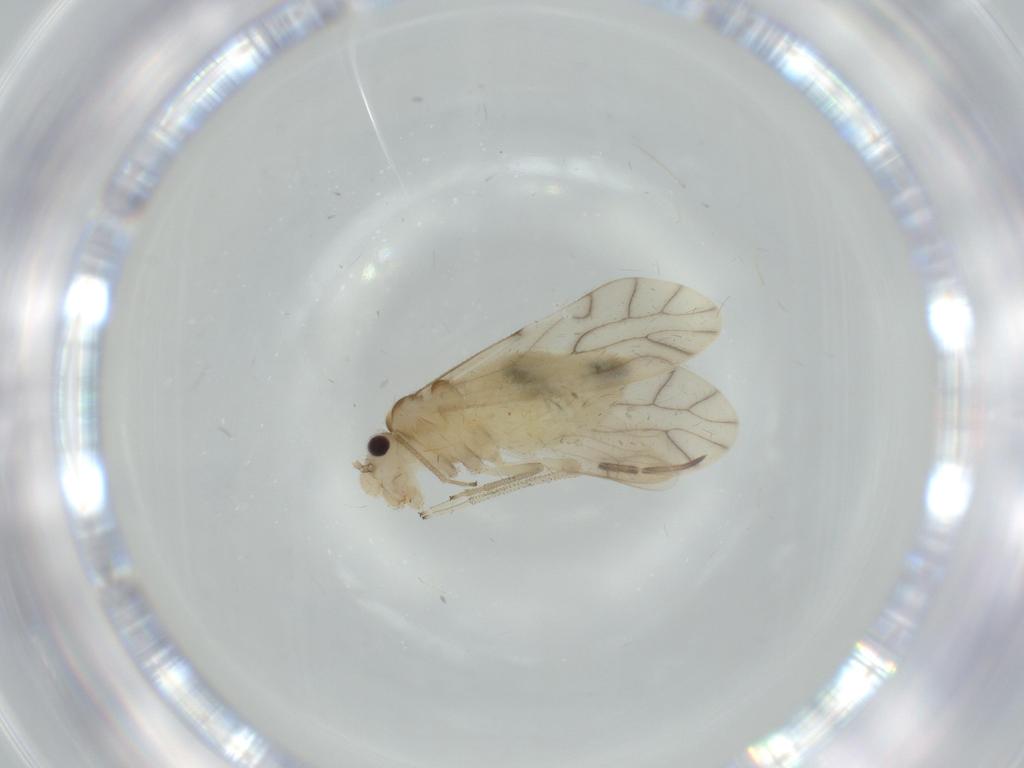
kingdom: Animalia
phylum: Arthropoda
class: Insecta
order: Psocodea
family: Caeciliusidae
